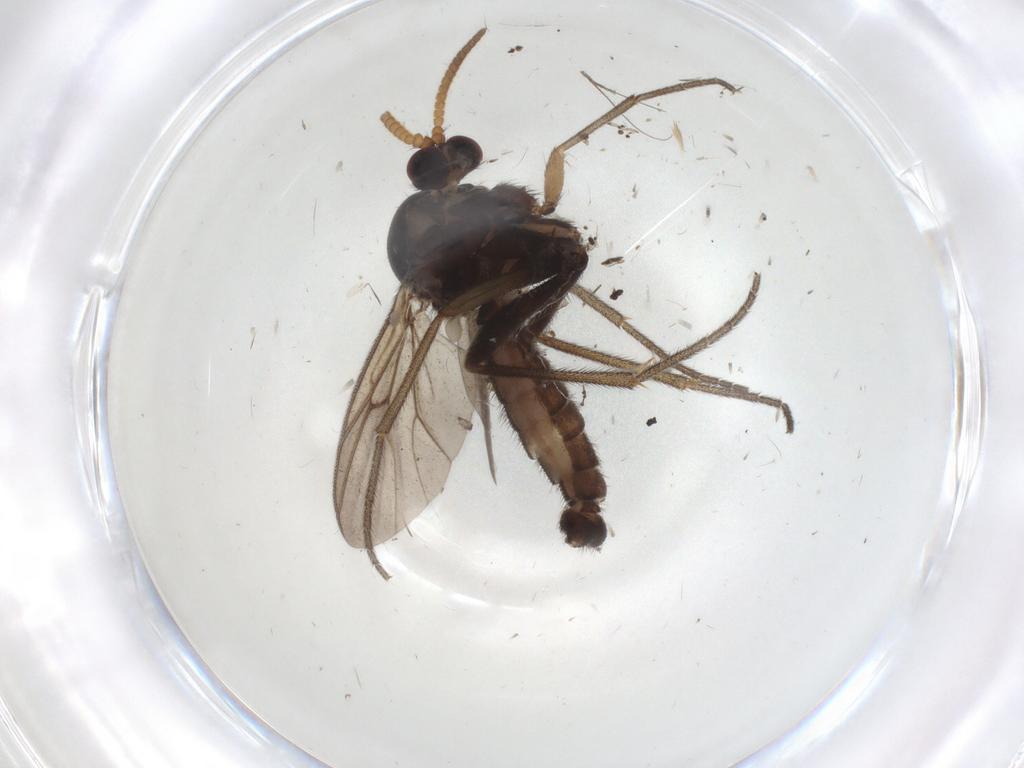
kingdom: Animalia
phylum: Arthropoda
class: Insecta
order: Diptera
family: Mycetophilidae
